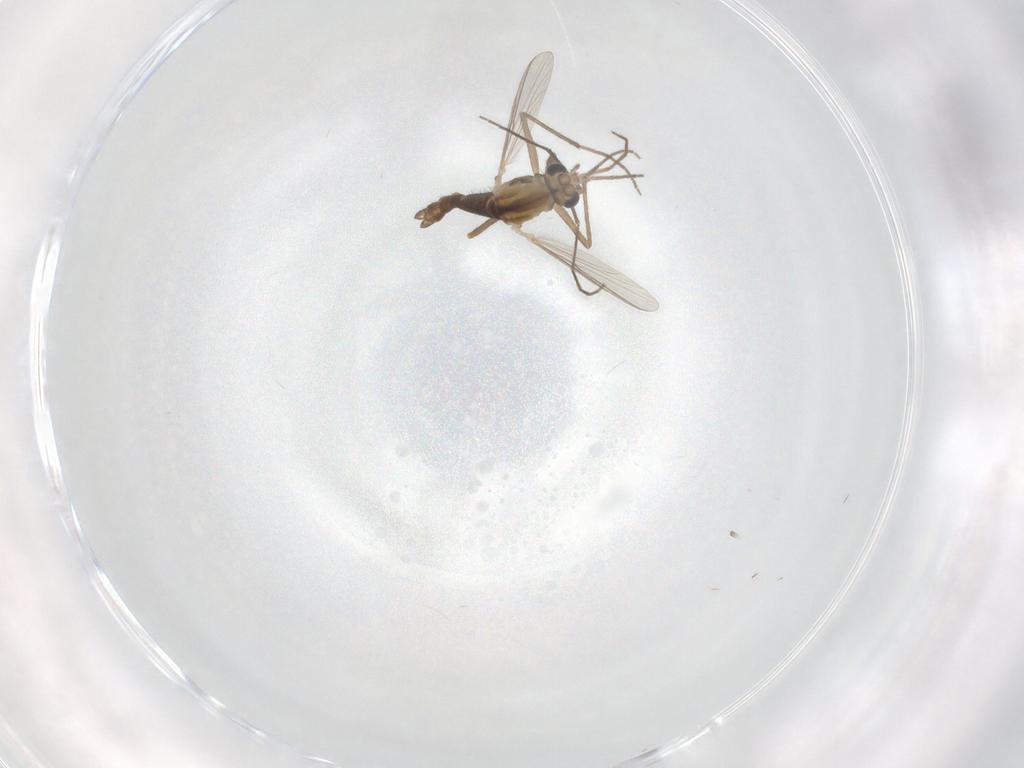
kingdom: Animalia
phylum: Arthropoda
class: Insecta
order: Diptera
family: Chironomidae
